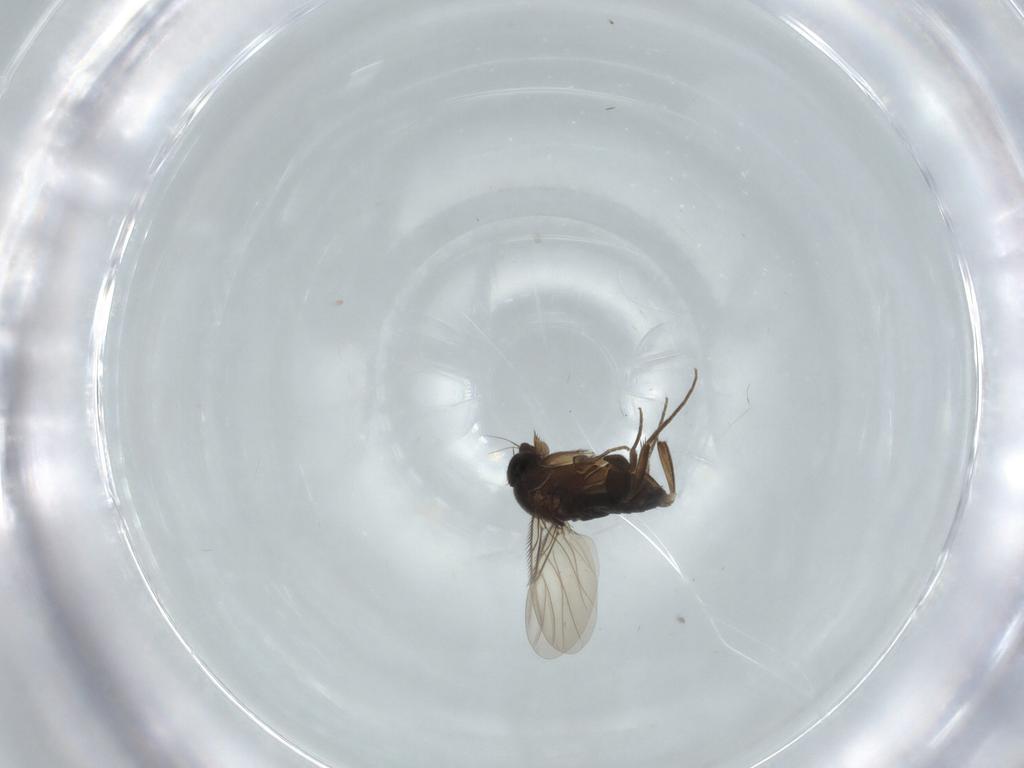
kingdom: Animalia
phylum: Arthropoda
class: Insecta
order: Diptera
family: Phoridae
